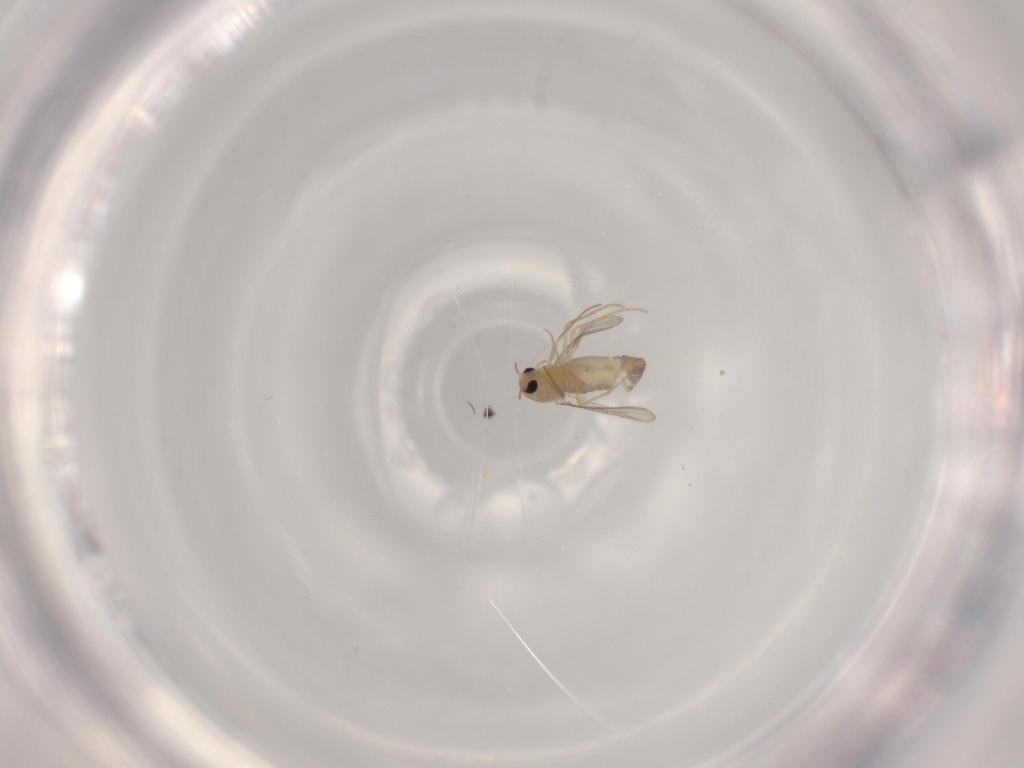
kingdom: Animalia
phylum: Arthropoda
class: Insecta
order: Diptera
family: Chironomidae
